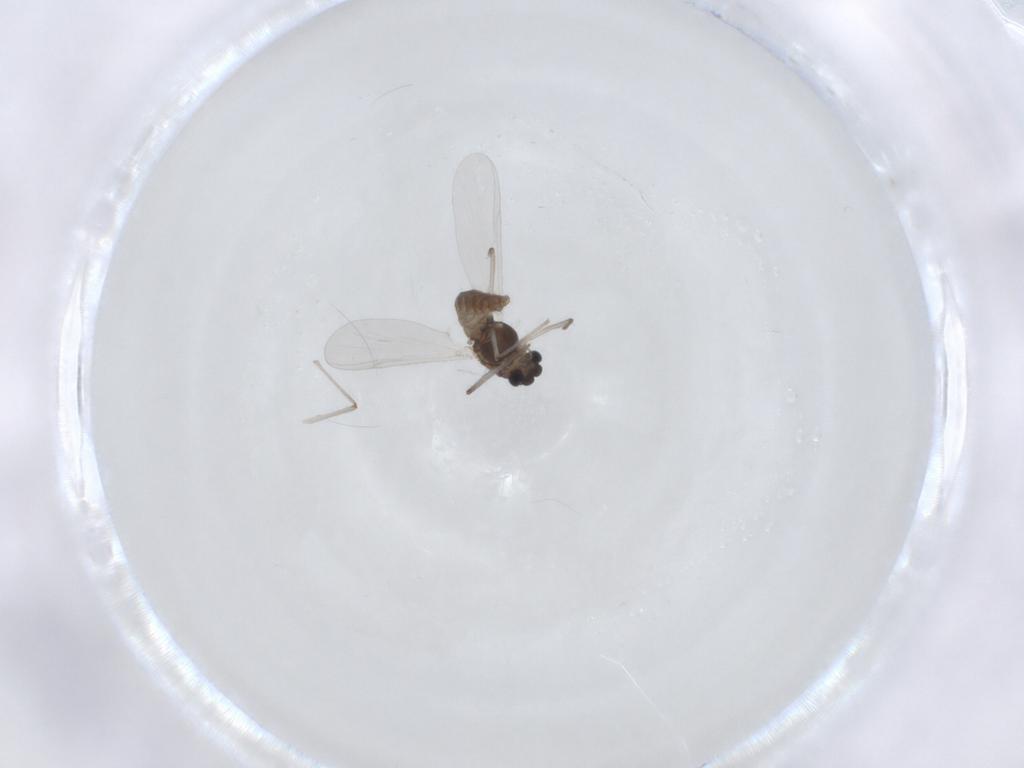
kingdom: Animalia
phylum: Arthropoda
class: Insecta
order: Diptera
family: Chironomidae
